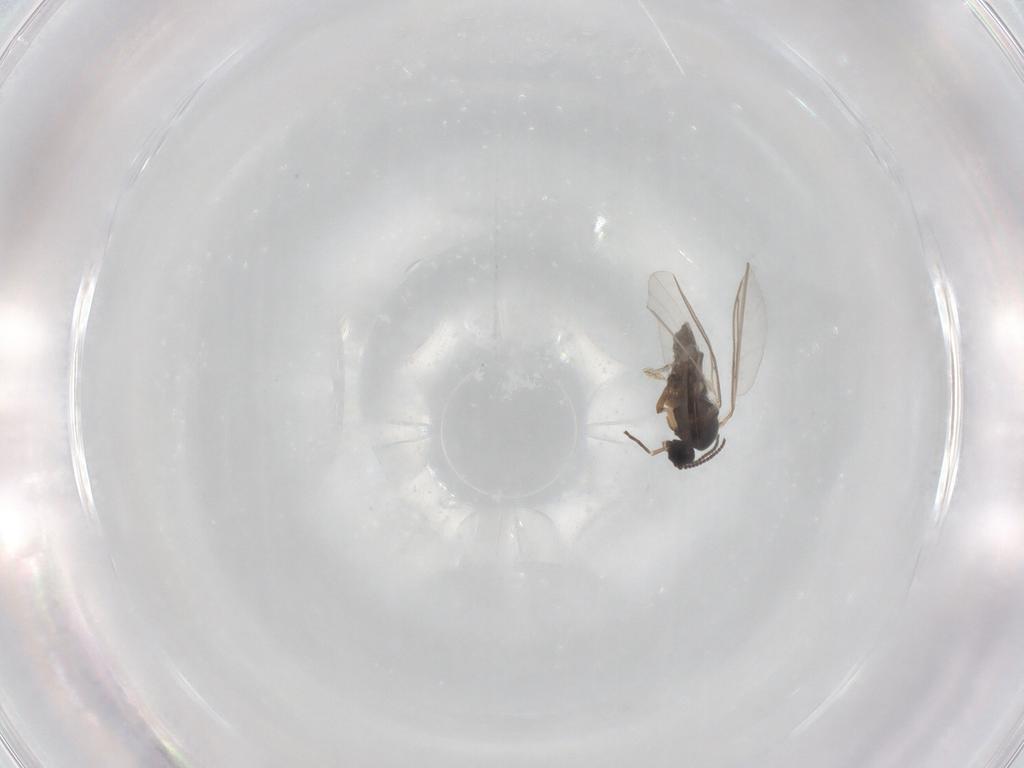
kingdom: Animalia
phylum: Arthropoda
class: Insecta
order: Diptera
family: Sciaridae
